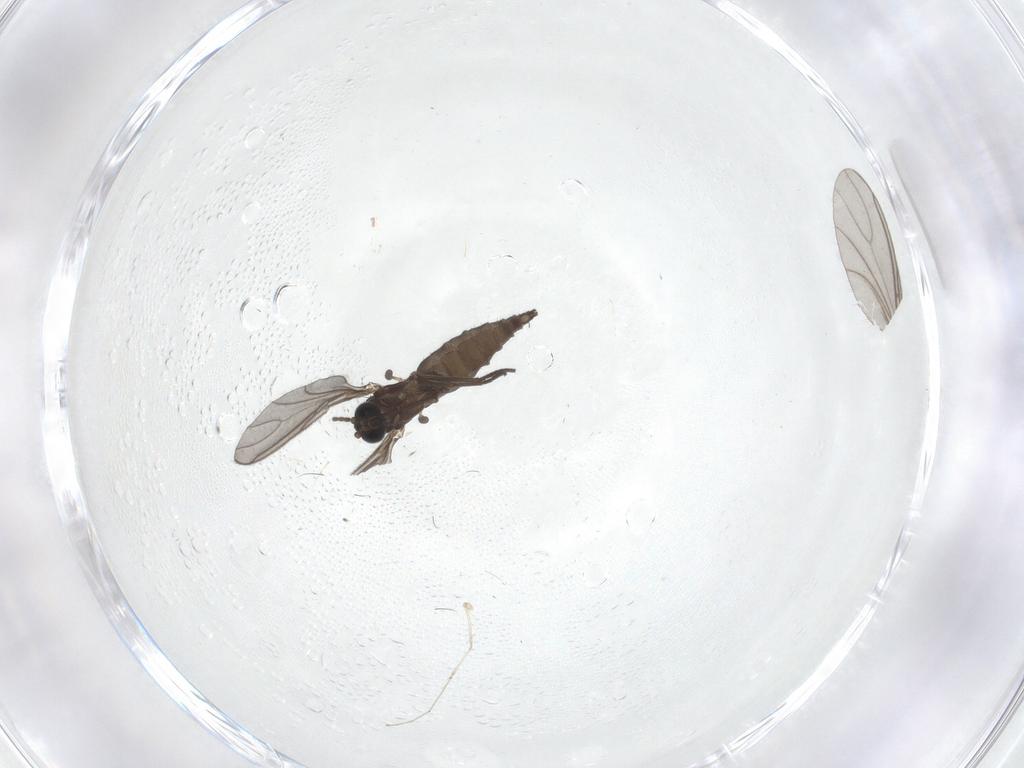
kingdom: Animalia
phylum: Arthropoda
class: Insecta
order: Diptera
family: Sciaridae
